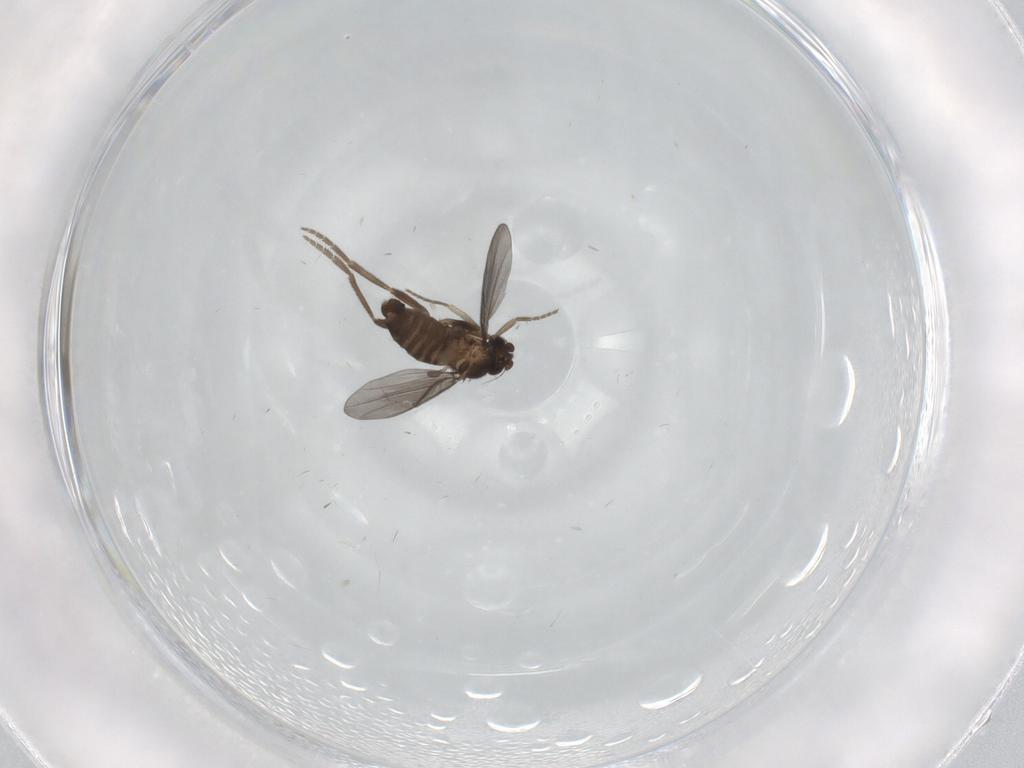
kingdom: Animalia
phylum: Arthropoda
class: Insecta
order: Diptera
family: Phoridae
